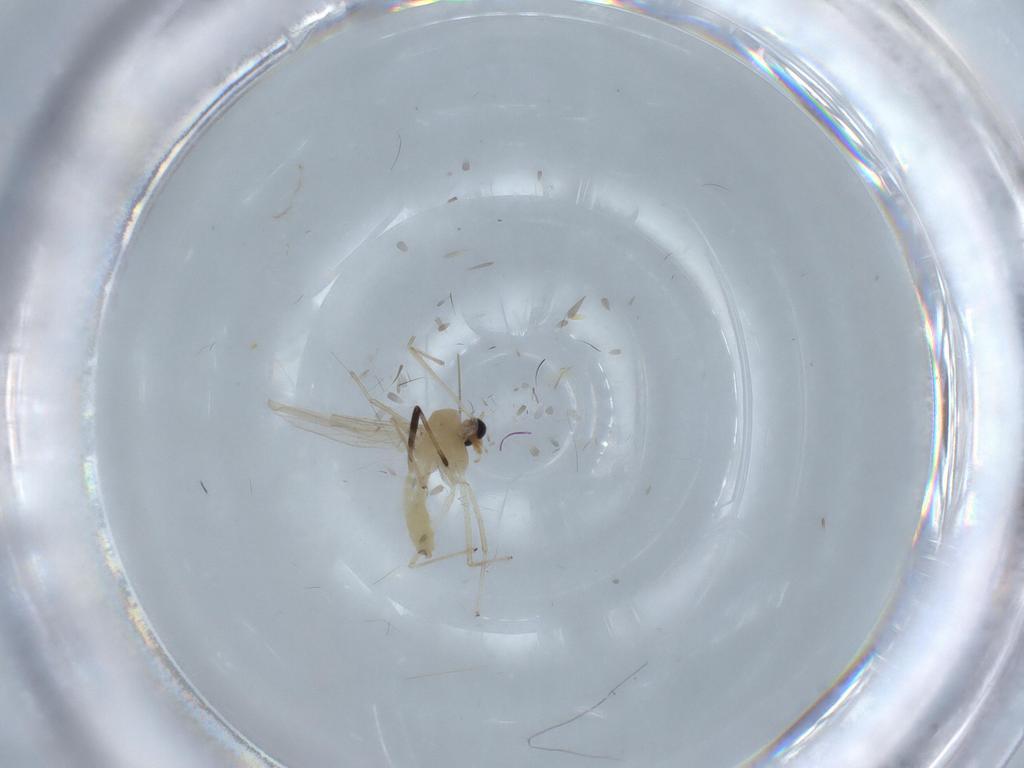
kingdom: Animalia
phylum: Arthropoda
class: Insecta
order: Diptera
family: Chironomidae
